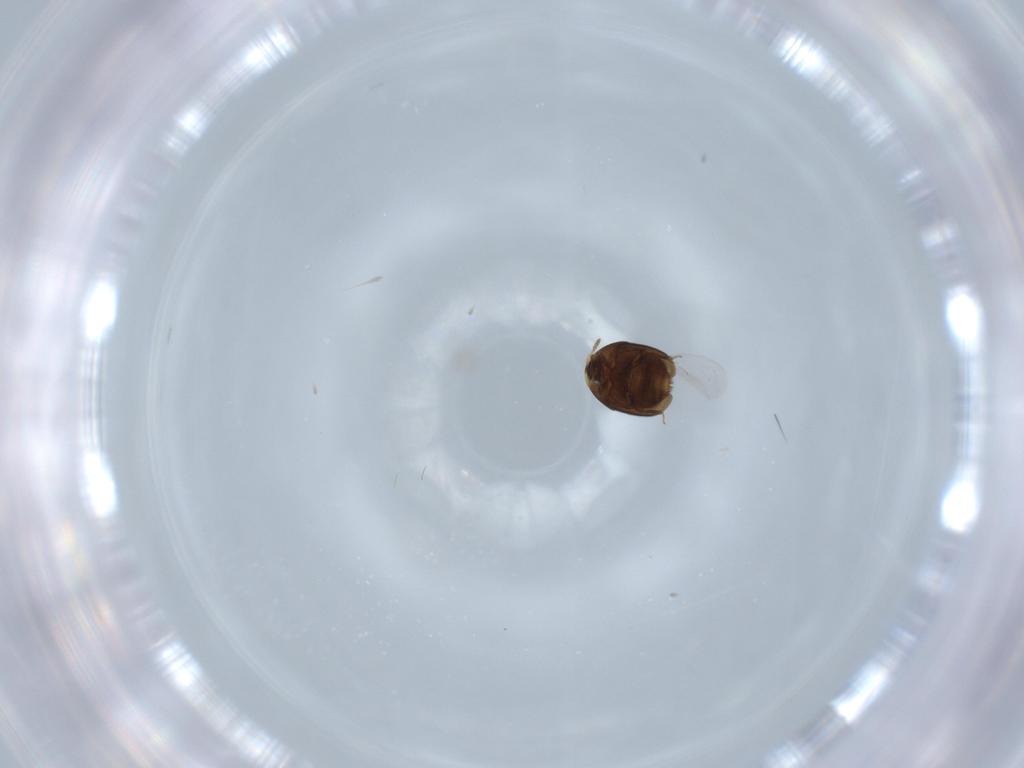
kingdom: Animalia
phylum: Arthropoda
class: Insecta
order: Coleoptera
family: Corylophidae
